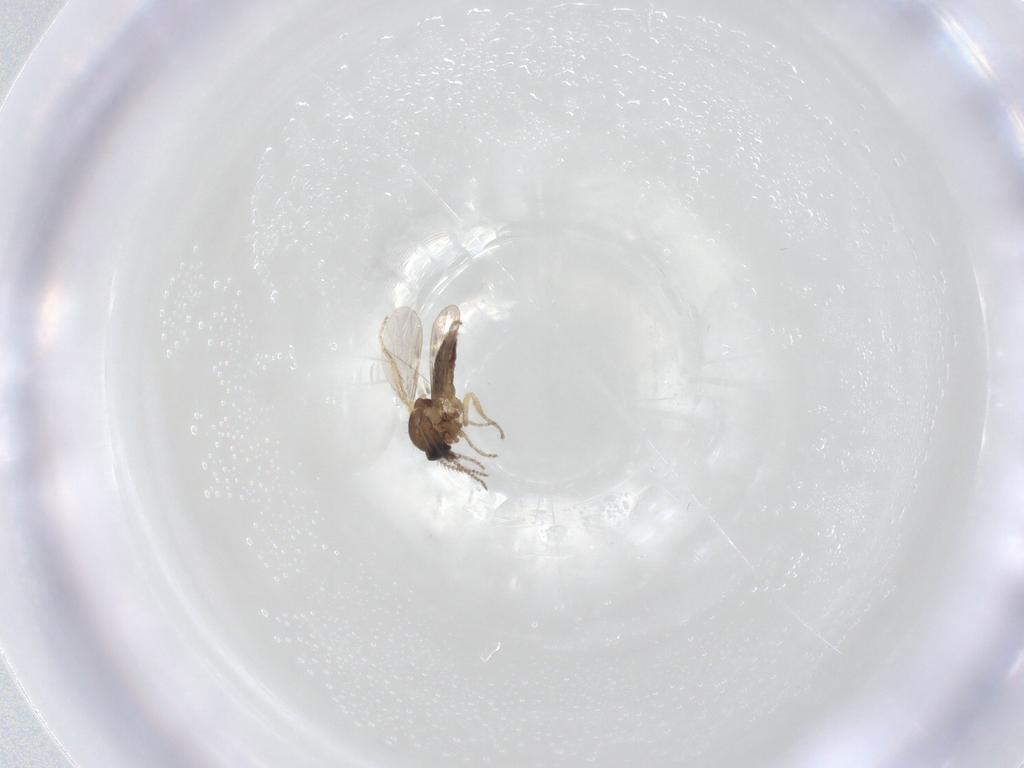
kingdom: Animalia
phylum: Arthropoda
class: Insecta
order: Diptera
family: Ceratopogonidae
